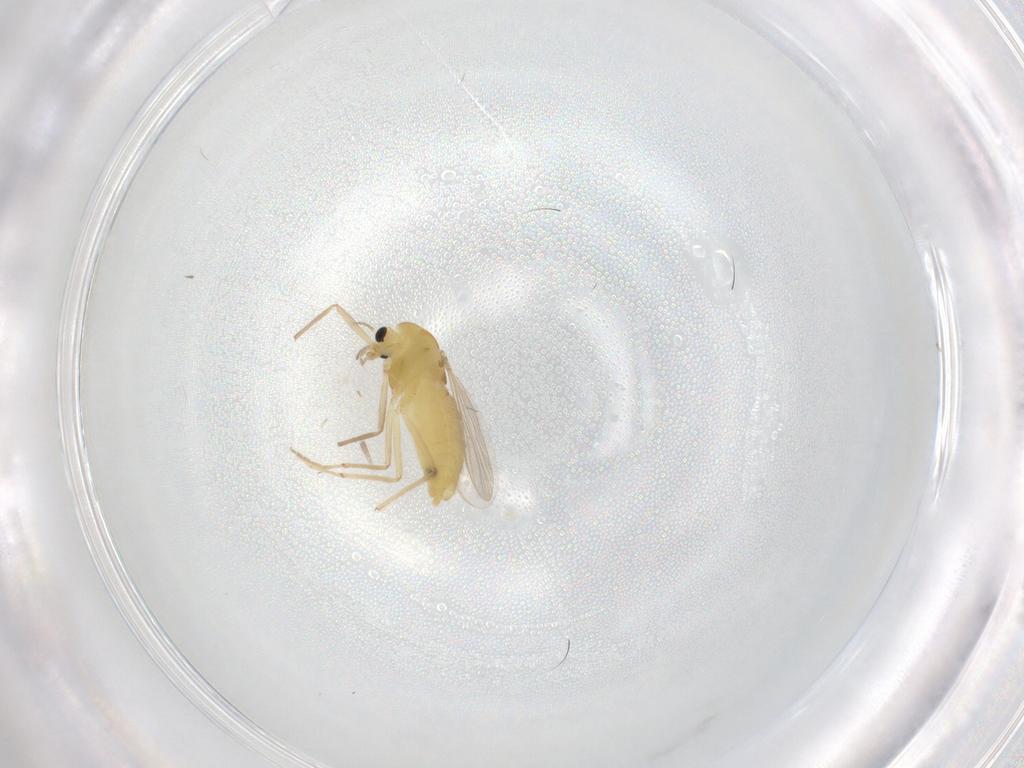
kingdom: Animalia
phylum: Arthropoda
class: Insecta
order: Diptera
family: Chironomidae
